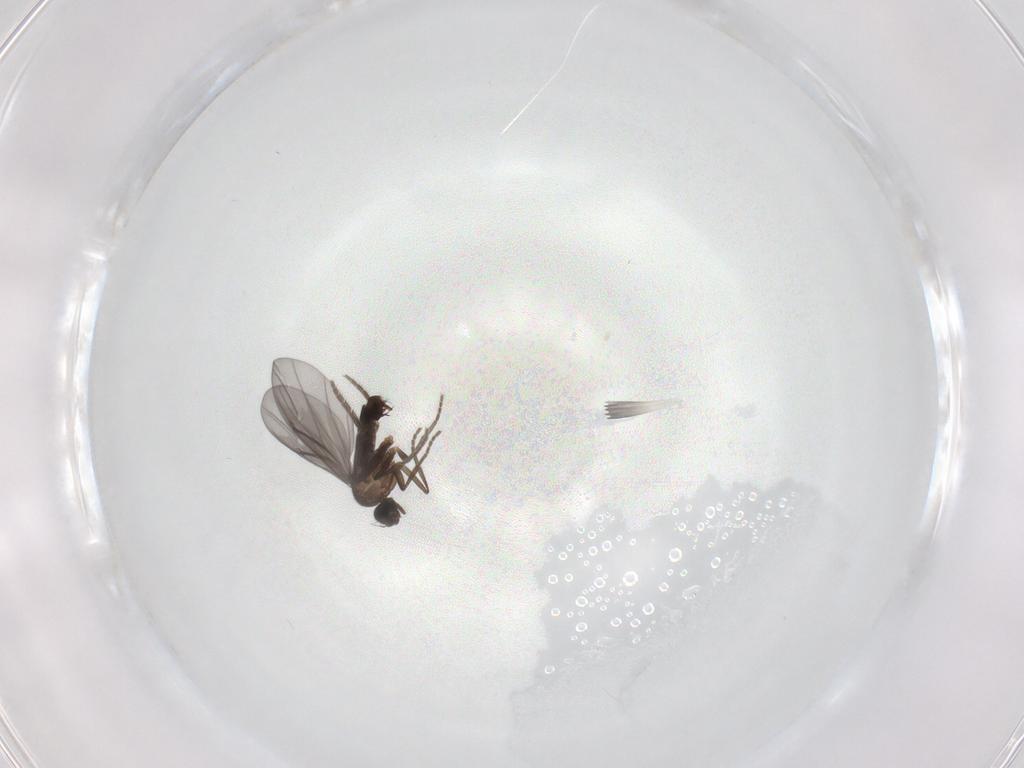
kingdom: Animalia
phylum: Arthropoda
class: Insecta
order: Diptera
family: Phoridae
